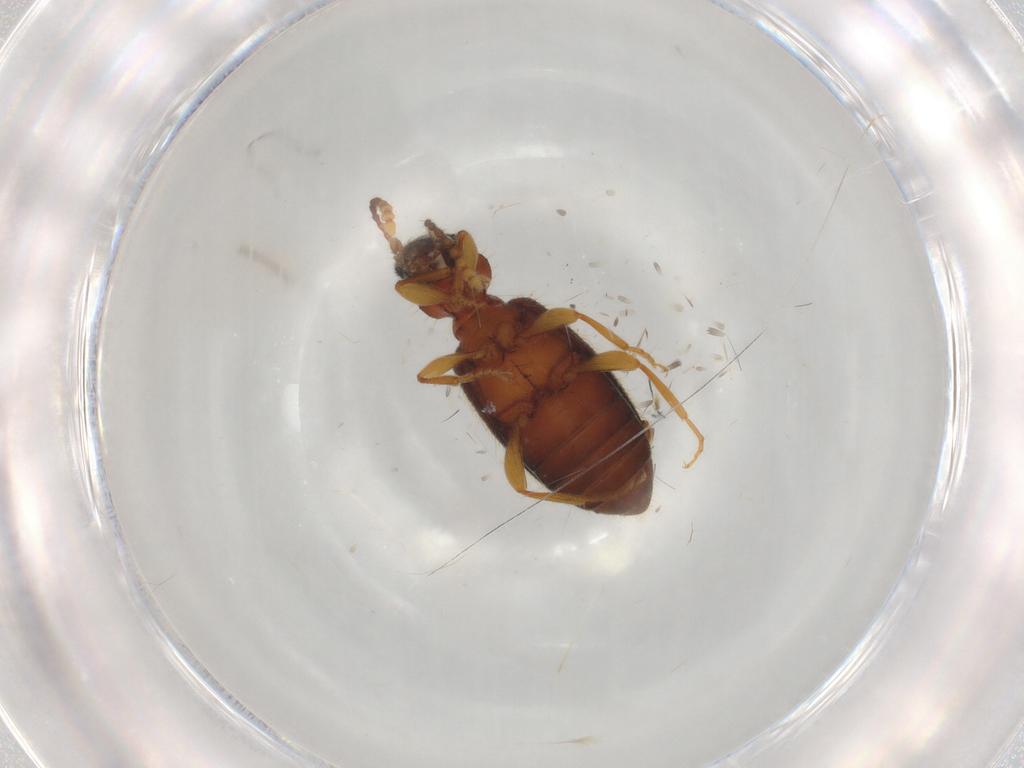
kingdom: Animalia
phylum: Arthropoda
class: Insecta
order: Coleoptera
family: Anthicidae
